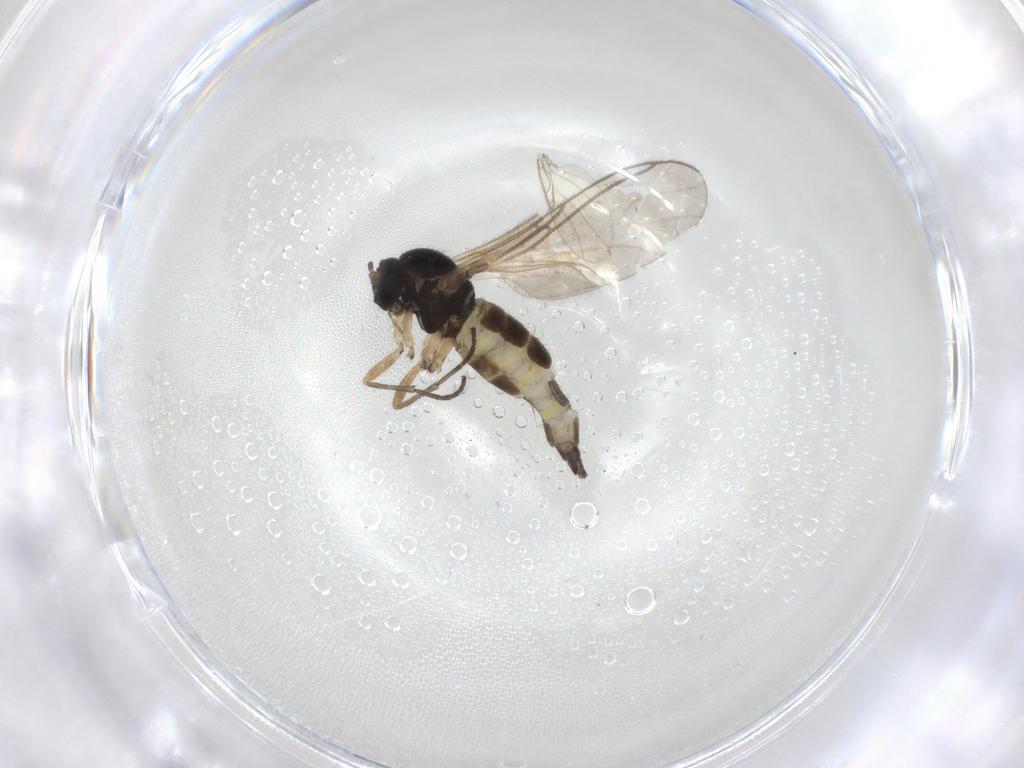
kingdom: Animalia
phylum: Arthropoda
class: Insecta
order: Diptera
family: Sciaridae
